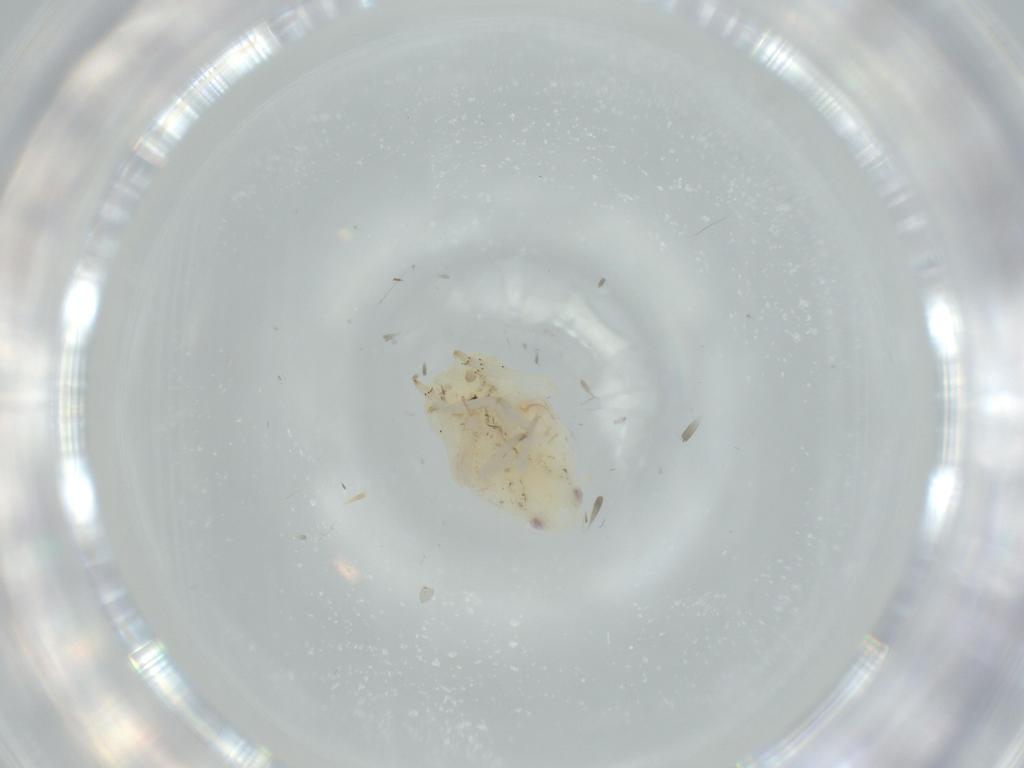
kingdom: Animalia
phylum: Arthropoda
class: Insecta
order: Hemiptera
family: Flatidae
